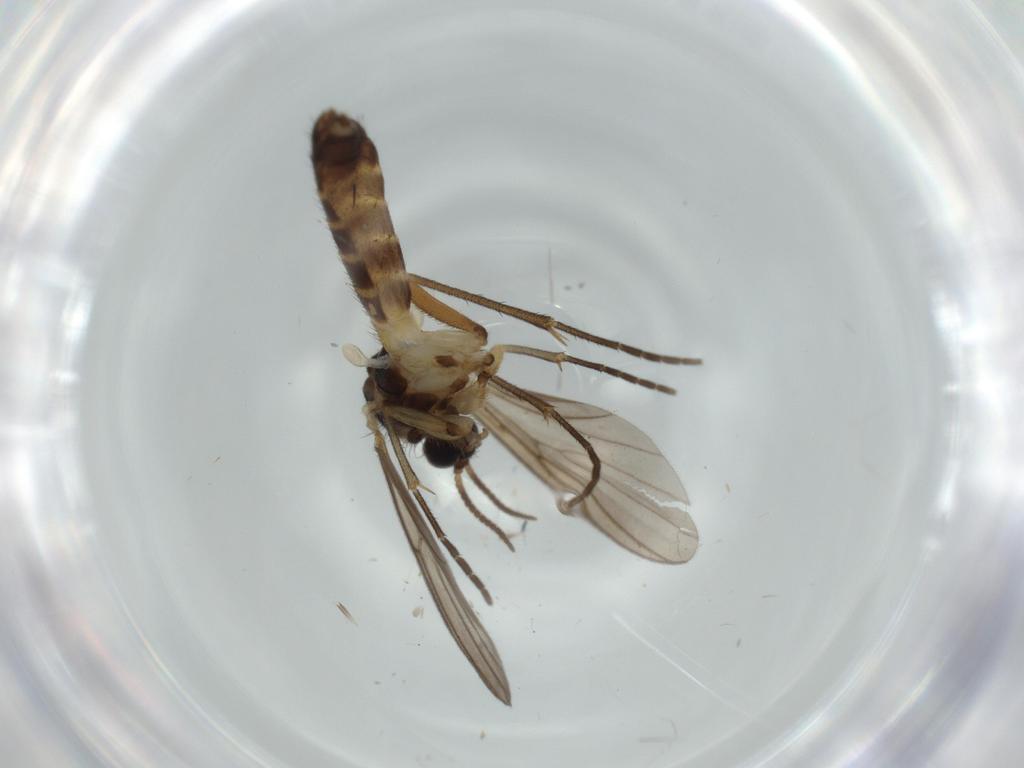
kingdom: Animalia
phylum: Arthropoda
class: Insecta
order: Diptera
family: Mycetophilidae
